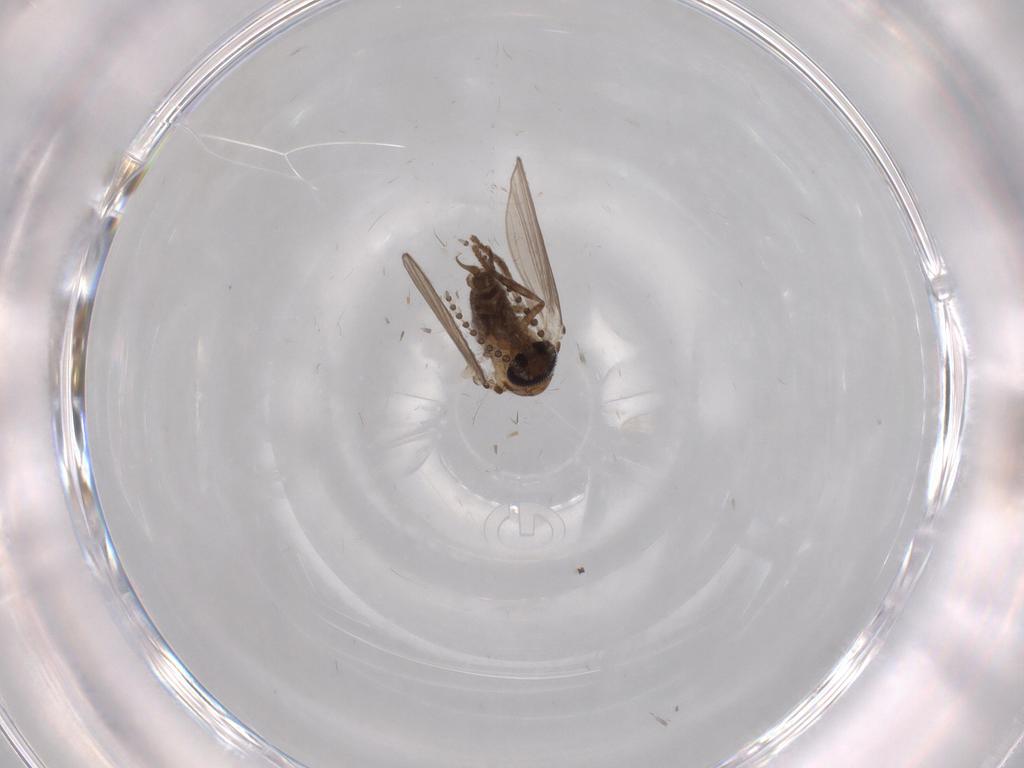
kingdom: Animalia
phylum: Arthropoda
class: Insecta
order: Diptera
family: Psychodidae
